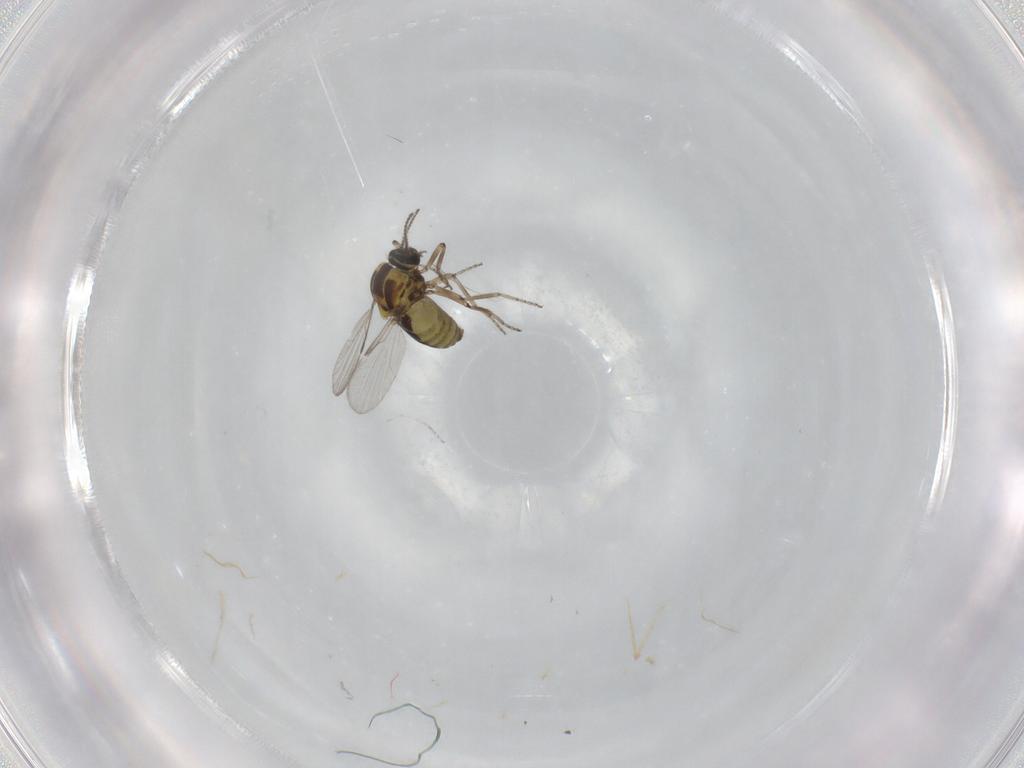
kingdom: Animalia
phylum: Arthropoda
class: Insecta
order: Diptera
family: Ceratopogonidae
